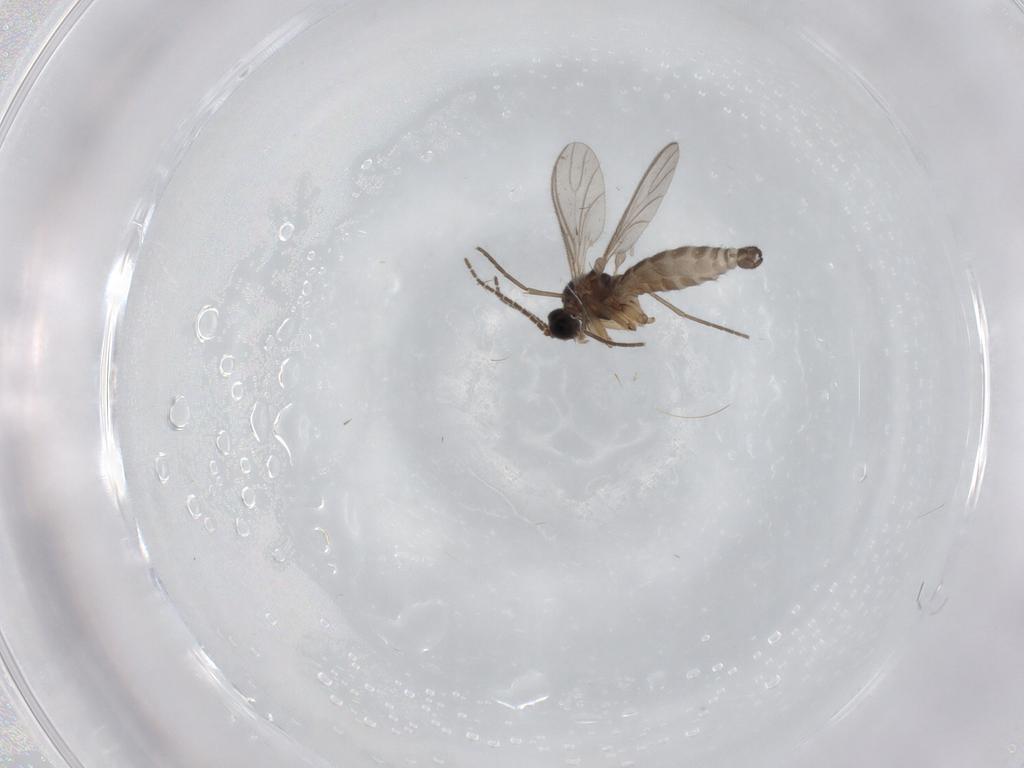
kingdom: Animalia
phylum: Arthropoda
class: Insecta
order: Diptera
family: Sciaridae
